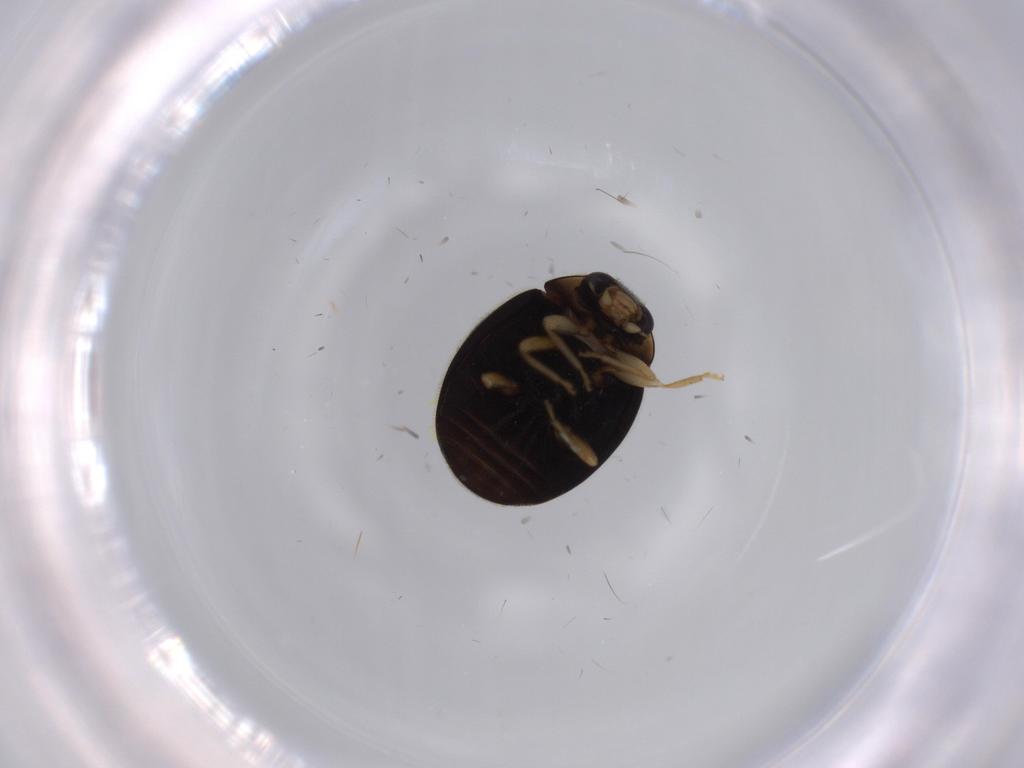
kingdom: Animalia
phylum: Arthropoda
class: Insecta
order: Coleoptera
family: Coccinellidae
